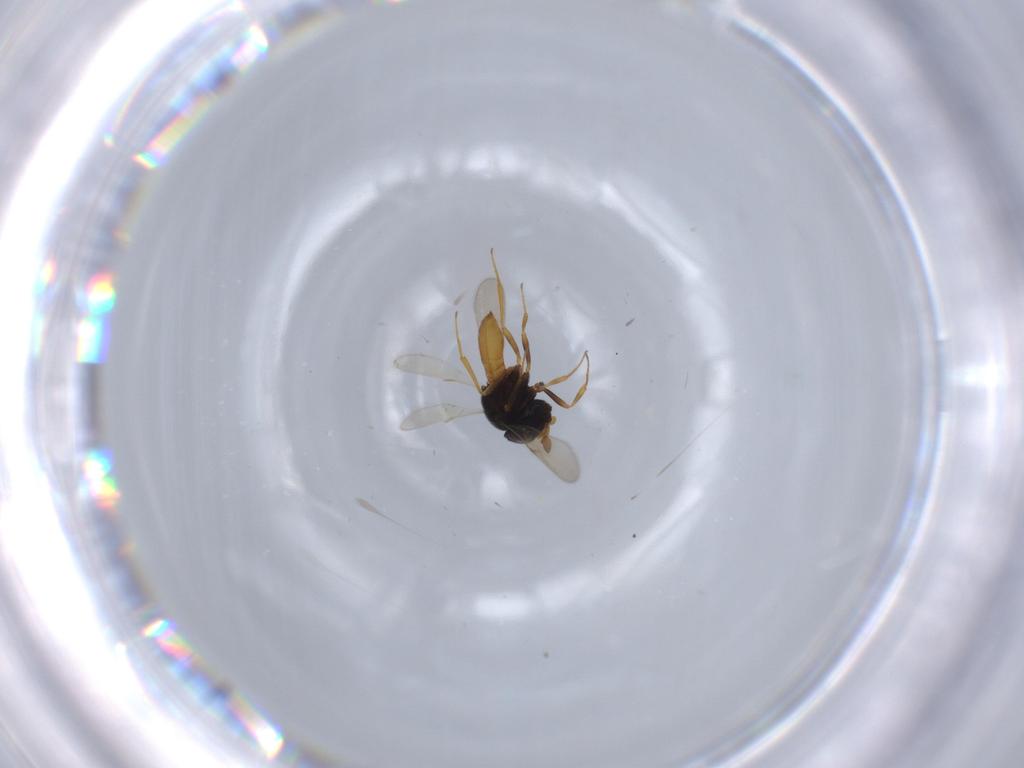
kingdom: Animalia
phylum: Arthropoda
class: Insecta
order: Hymenoptera
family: Scelionidae
